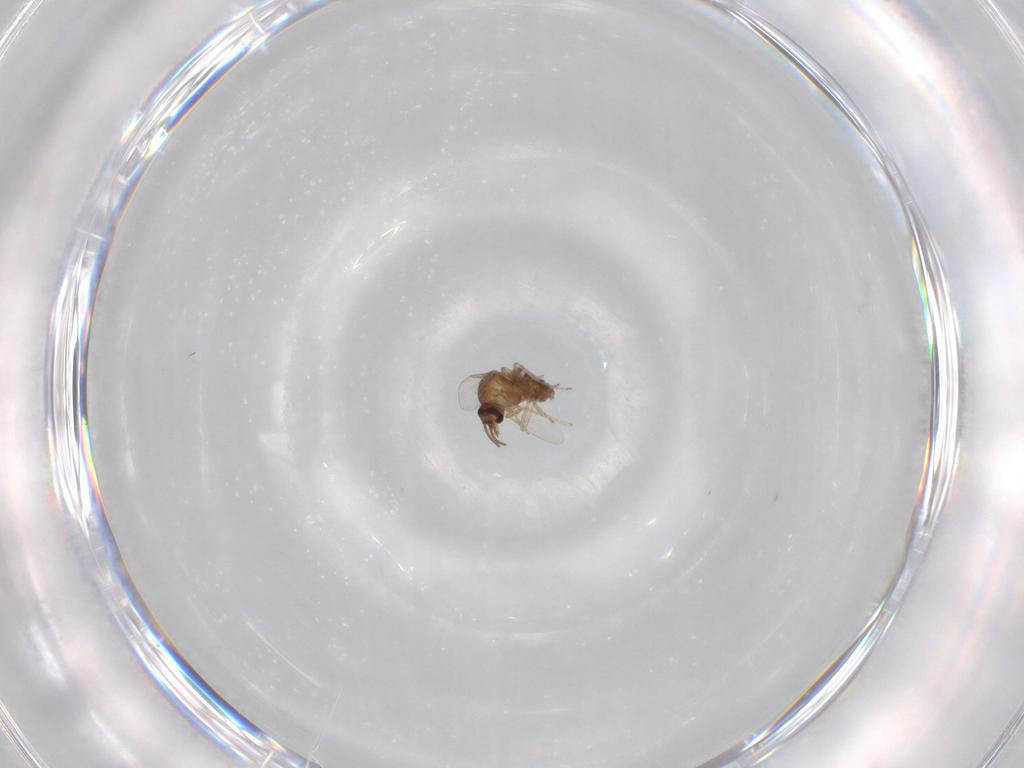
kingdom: Animalia
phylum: Arthropoda
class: Insecta
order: Diptera
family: Ceratopogonidae
